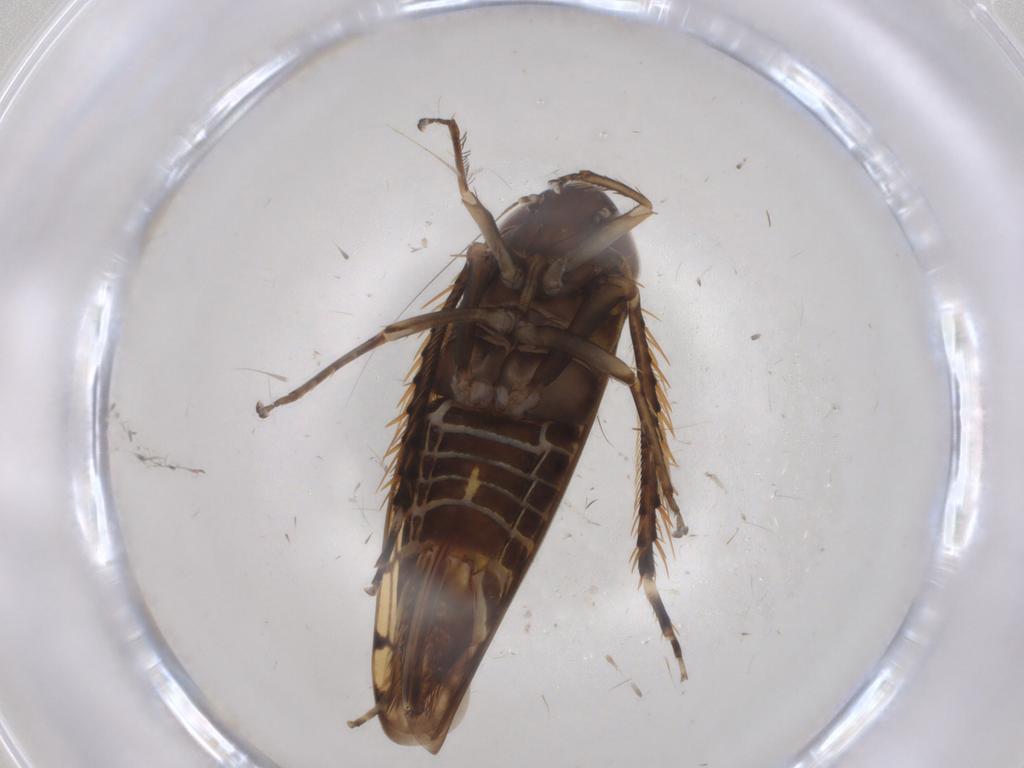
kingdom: Animalia
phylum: Arthropoda
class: Insecta
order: Hemiptera
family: Cicadellidae
